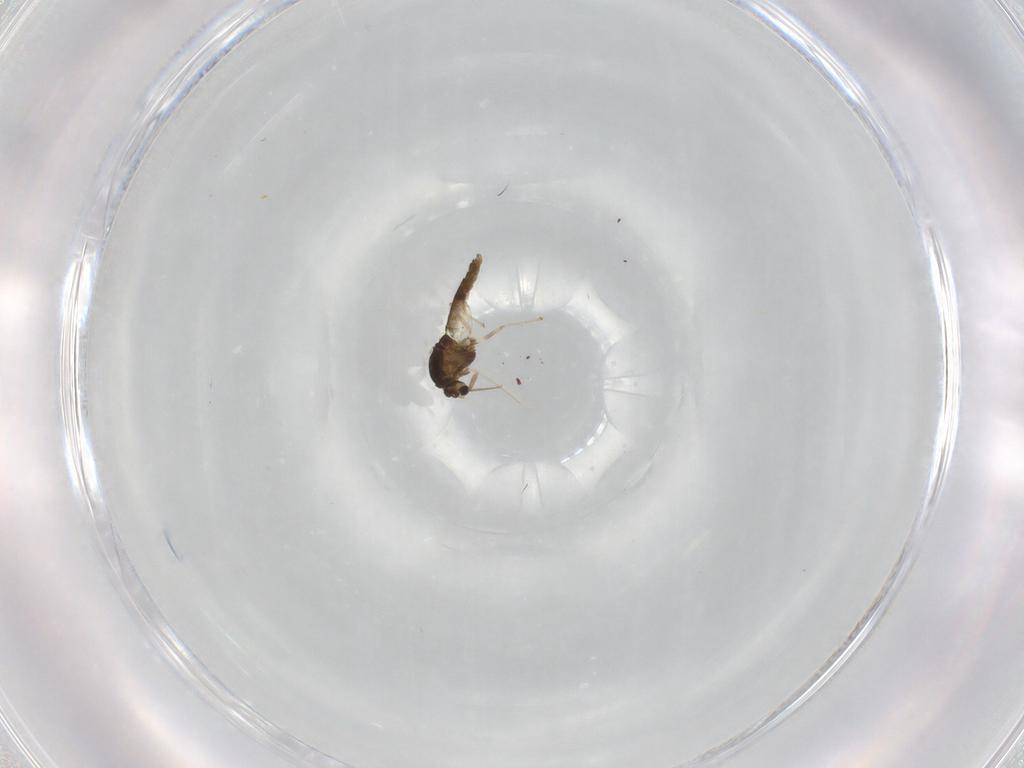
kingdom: Animalia
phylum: Arthropoda
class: Insecta
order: Diptera
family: Chironomidae
